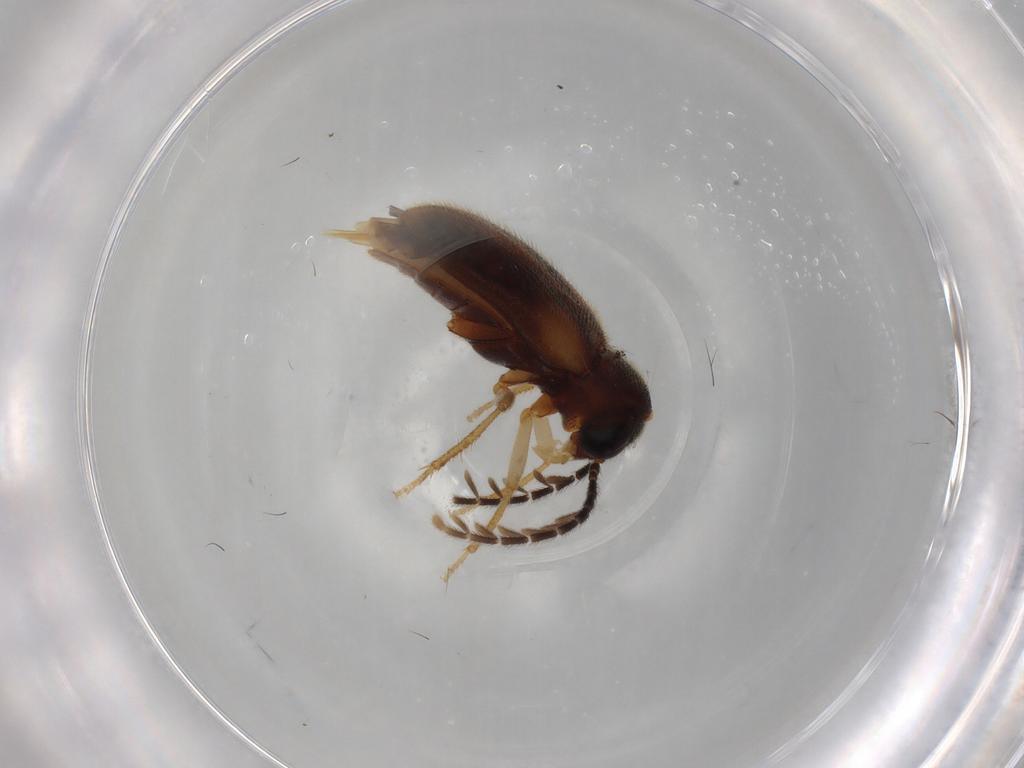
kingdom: Animalia
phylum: Arthropoda
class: Insecta
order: Coleoptera
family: Ptilodactylidae
